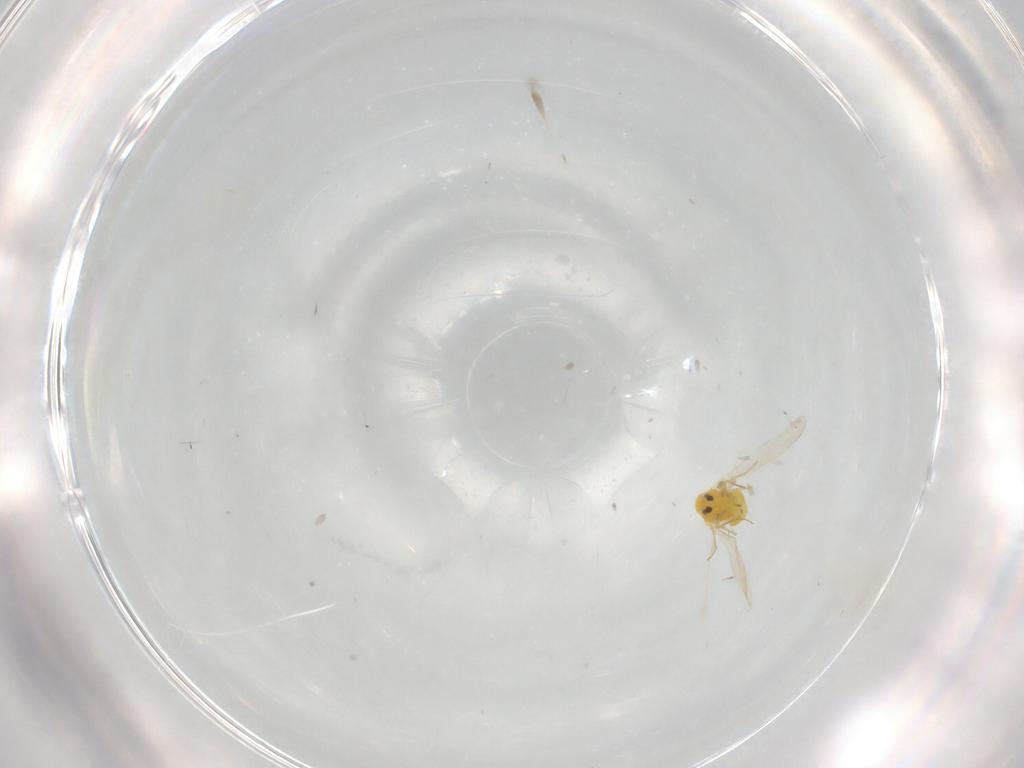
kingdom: Animalia
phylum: Arthropoda
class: Insecta
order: Hemiptera
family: Aleyrodidae
